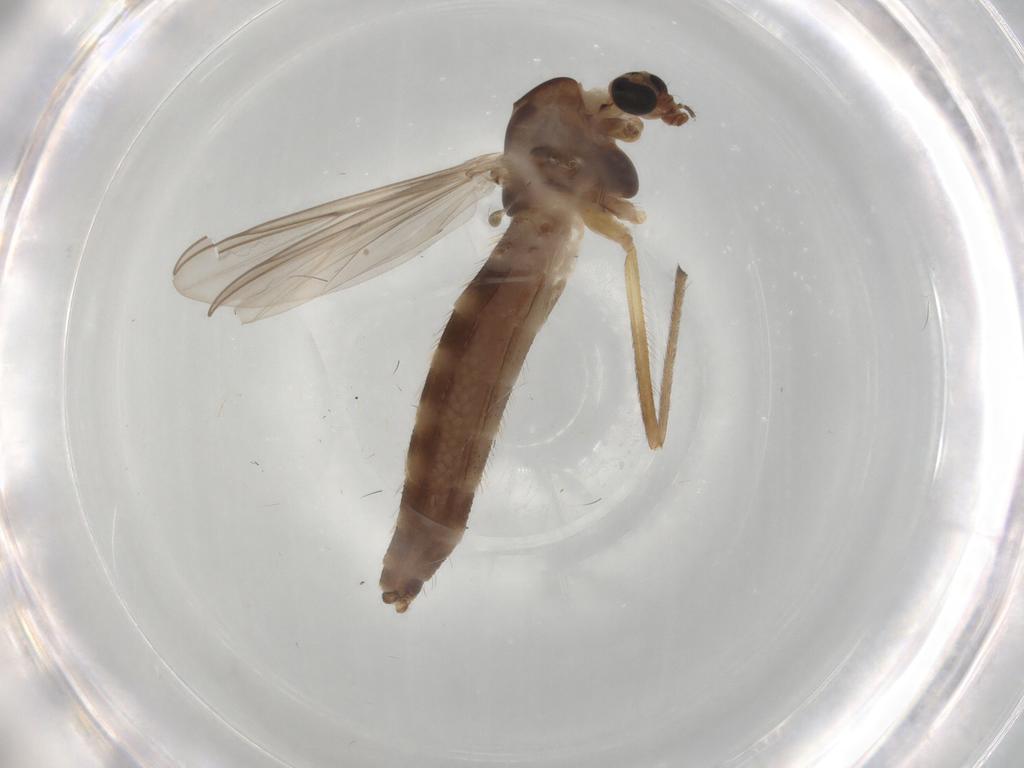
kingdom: Animalia
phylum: Arthropoda
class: Insecta
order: Diptera
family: Chironomidae
